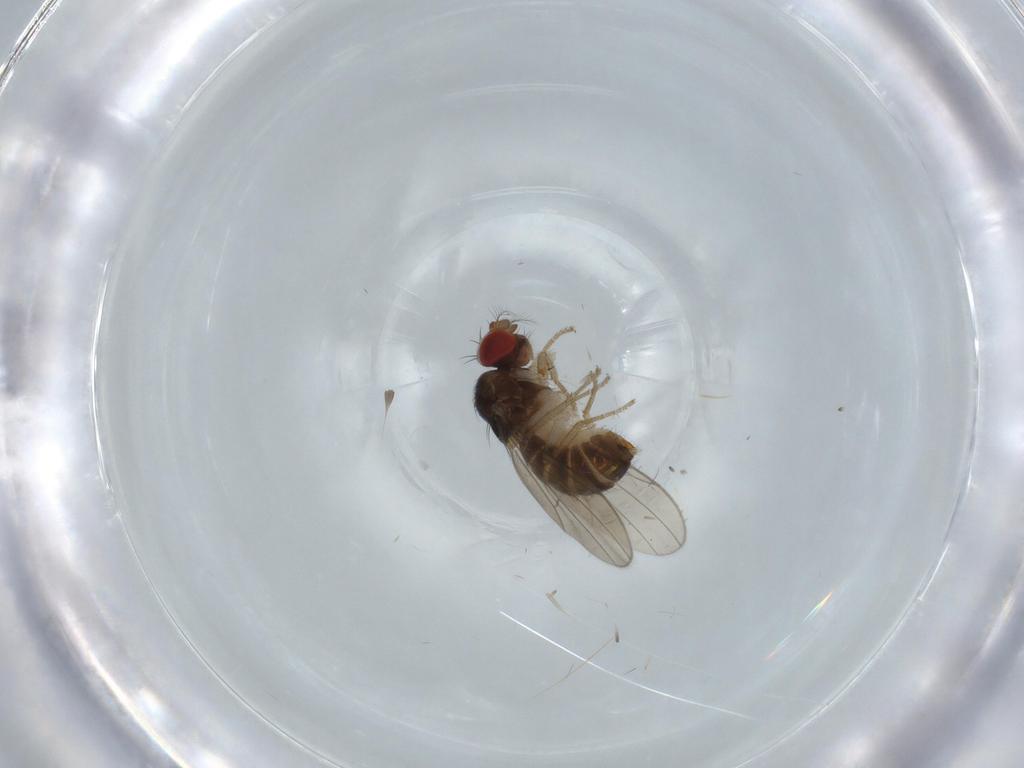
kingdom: Animalia
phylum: Arthropoda
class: Insecta
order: Diptera
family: Drosophilidae
